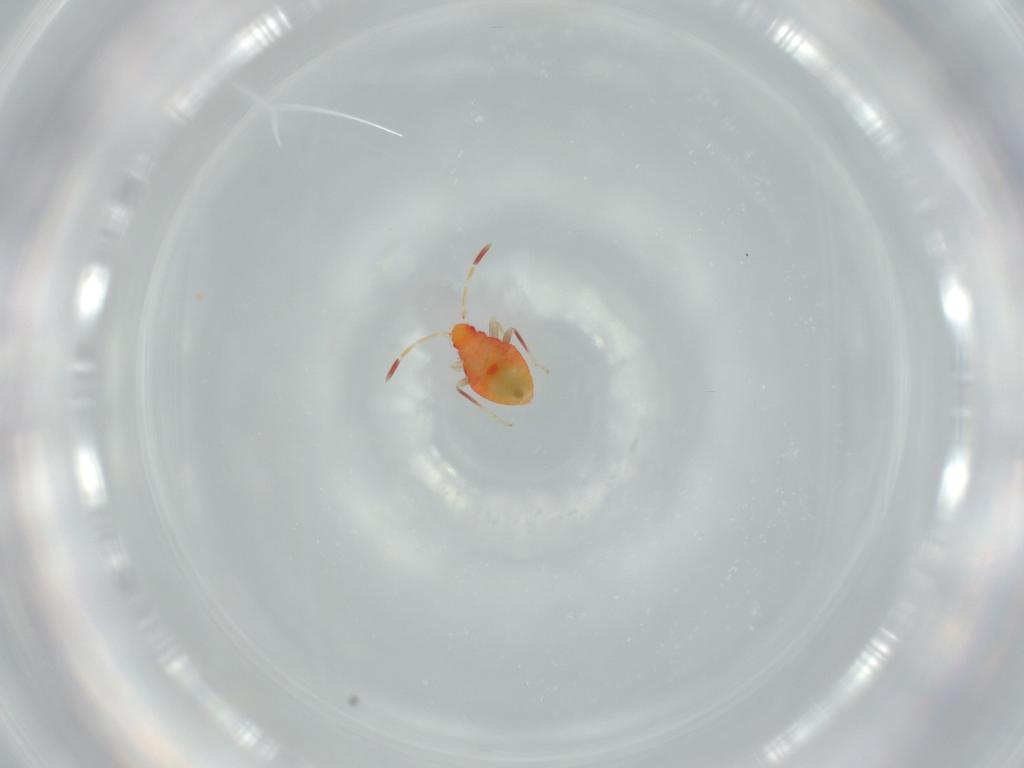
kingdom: Animalia
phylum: Arthropoda
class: Insecta
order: Hemiptera
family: Miridae
